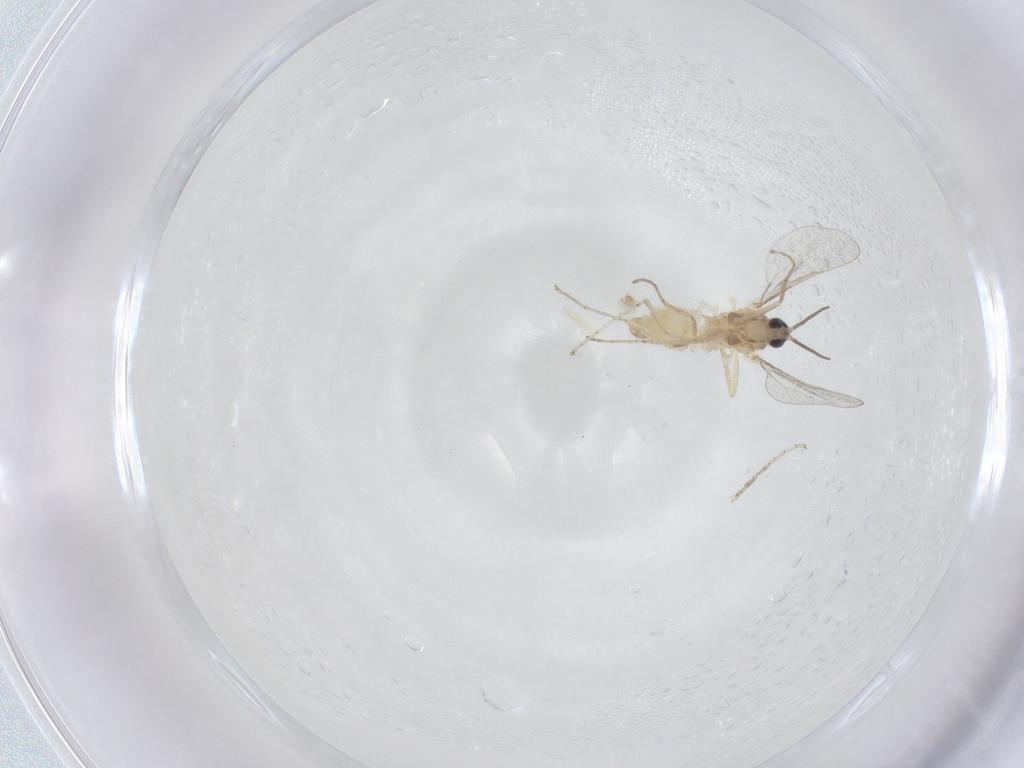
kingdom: Animalia
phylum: Arthropoda
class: Insecta
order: Diptera
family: Cecidomyiidae
